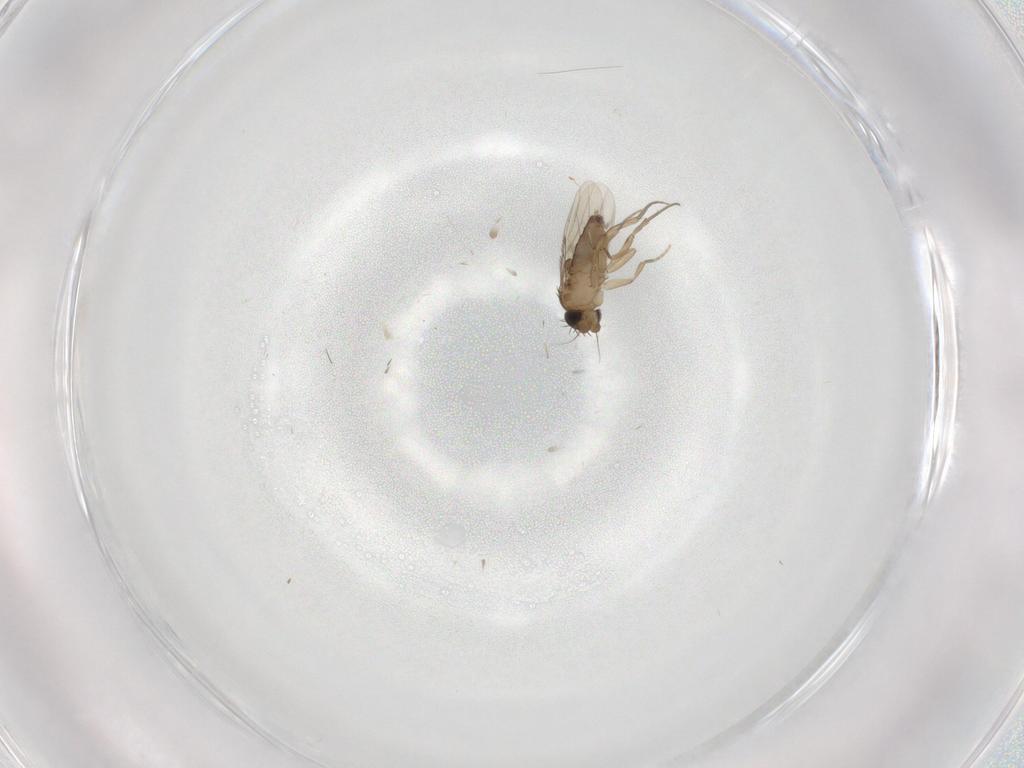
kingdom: Animalia
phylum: Arthropoda
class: Insecta
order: Diptera
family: Phoridae
